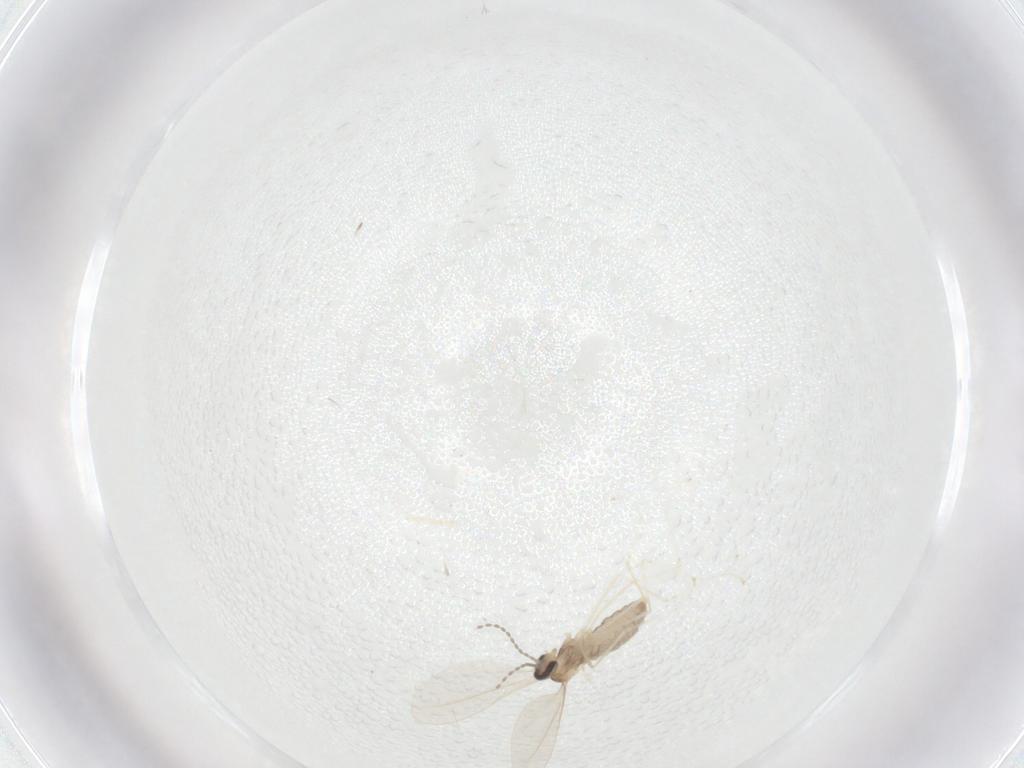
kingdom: Animalia
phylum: Arthropoda
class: Insecta
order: Diptera
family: Cecidomyiidae
